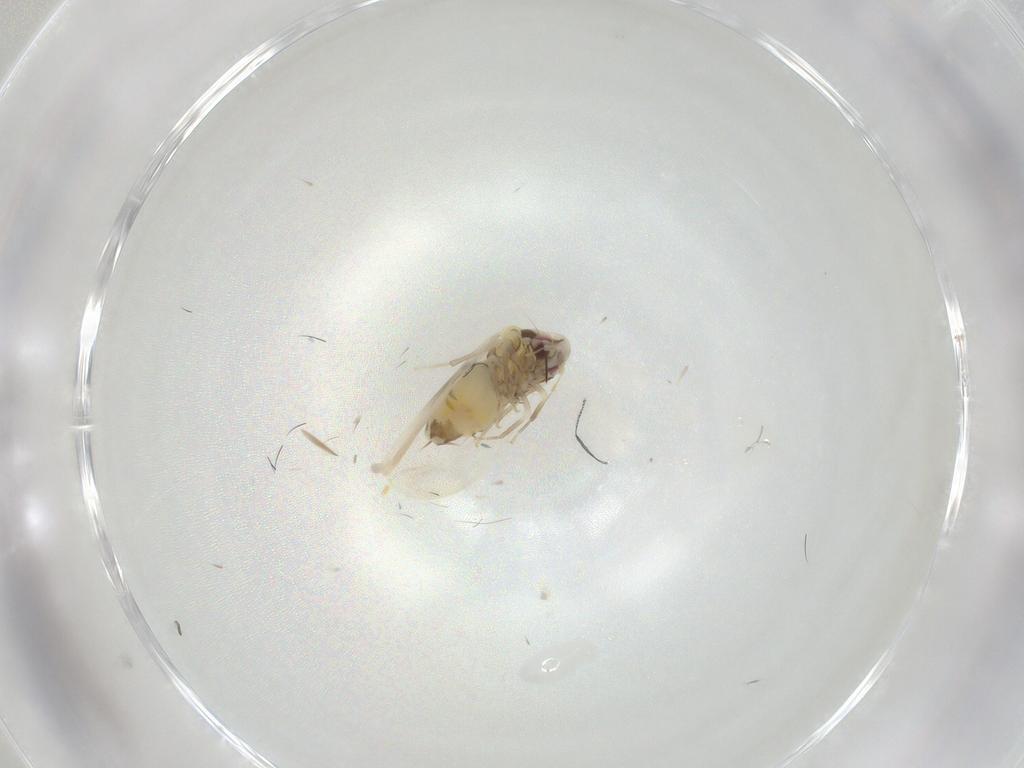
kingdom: Animalia
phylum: Arthropoda
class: Insecta
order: Hemiptera
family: Aleyrodidae
